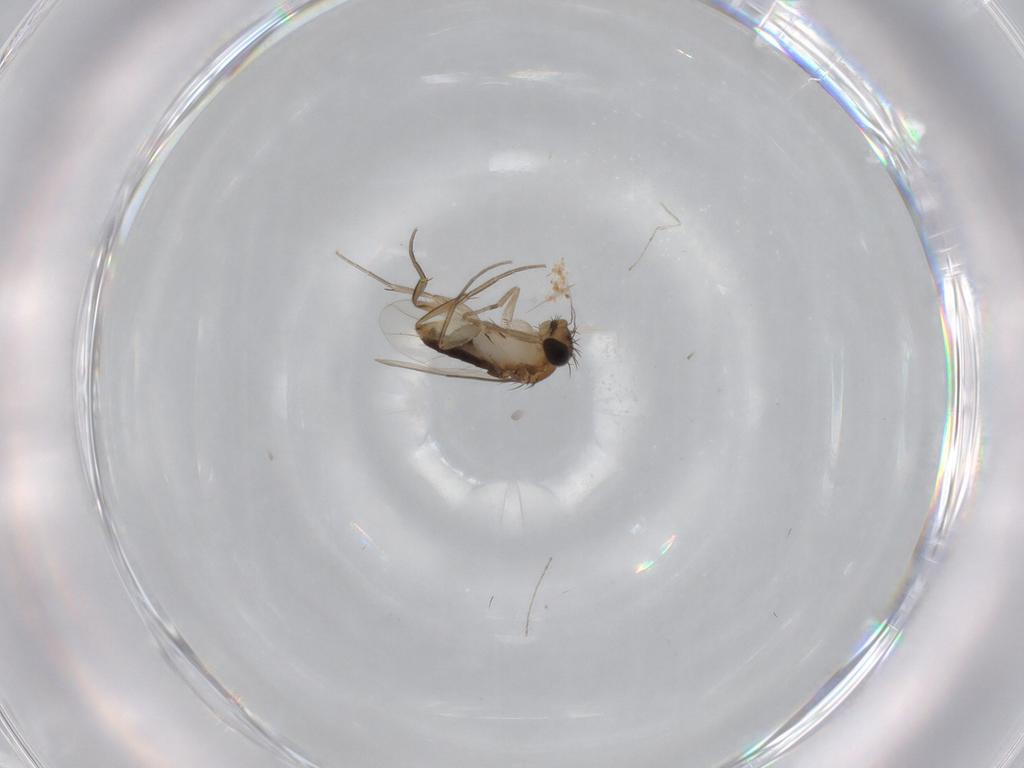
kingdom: Animalia
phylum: Arthropoda
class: Insecta
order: Diptera
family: Phoridae
